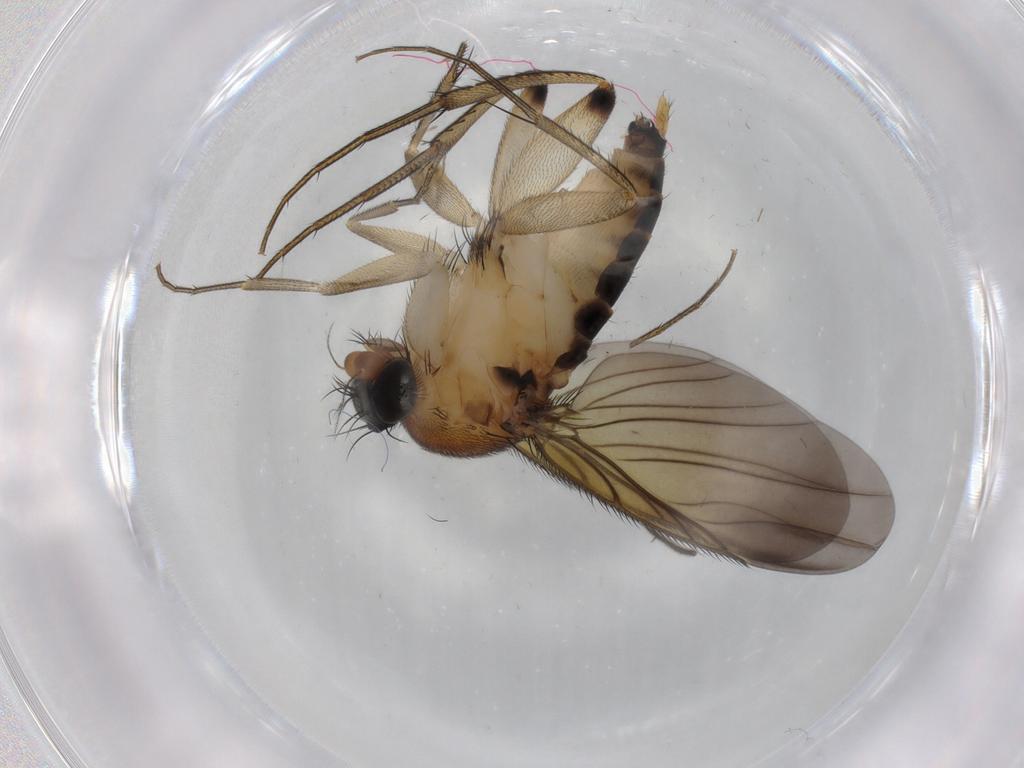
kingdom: Animalia
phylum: Arthropoda
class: Insecta
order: Diptera
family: Phoridae
